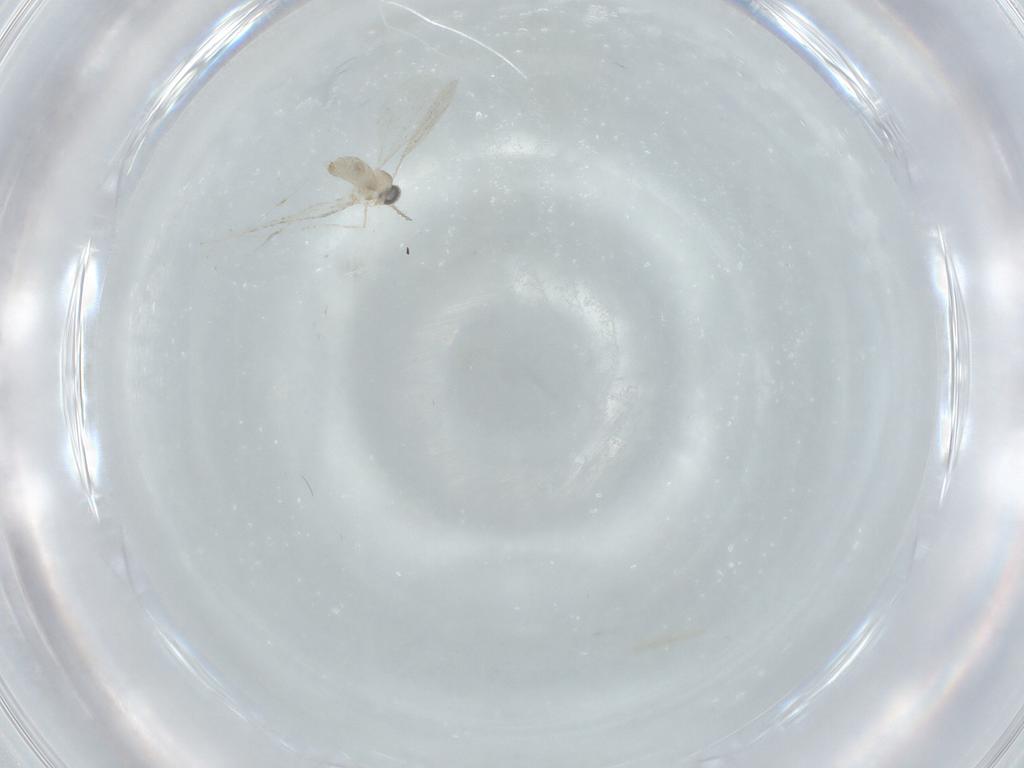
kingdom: Animalia
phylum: Arthropoda
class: Insecta
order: Diptera
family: Cecidomyiidae
